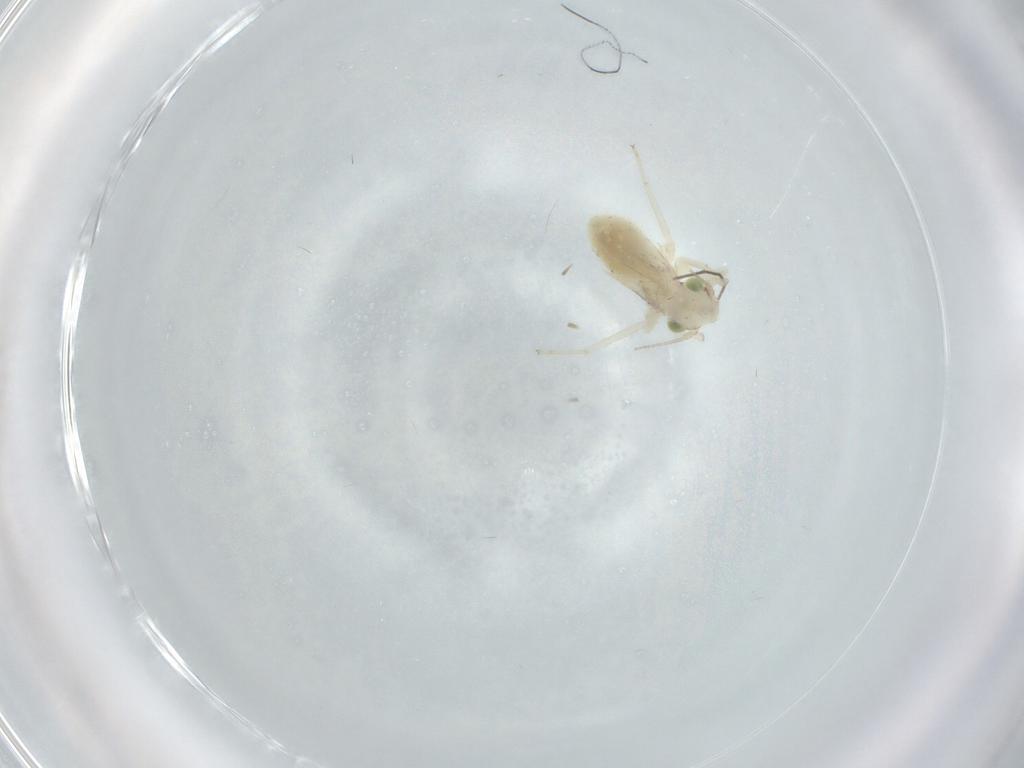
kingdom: Animalia
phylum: Arthropoda
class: Insecta
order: Psocodea
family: Lepidopsocidae
